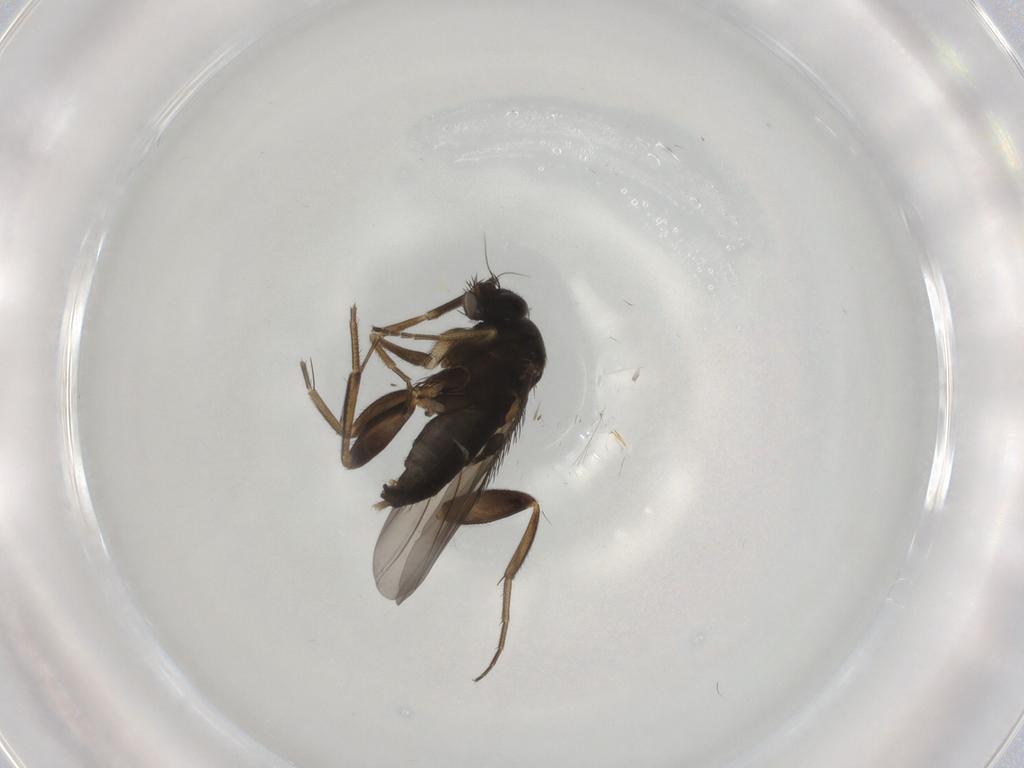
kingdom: Animalia
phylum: Arthropoda
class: Insecta
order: Diptera
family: Phoridae
